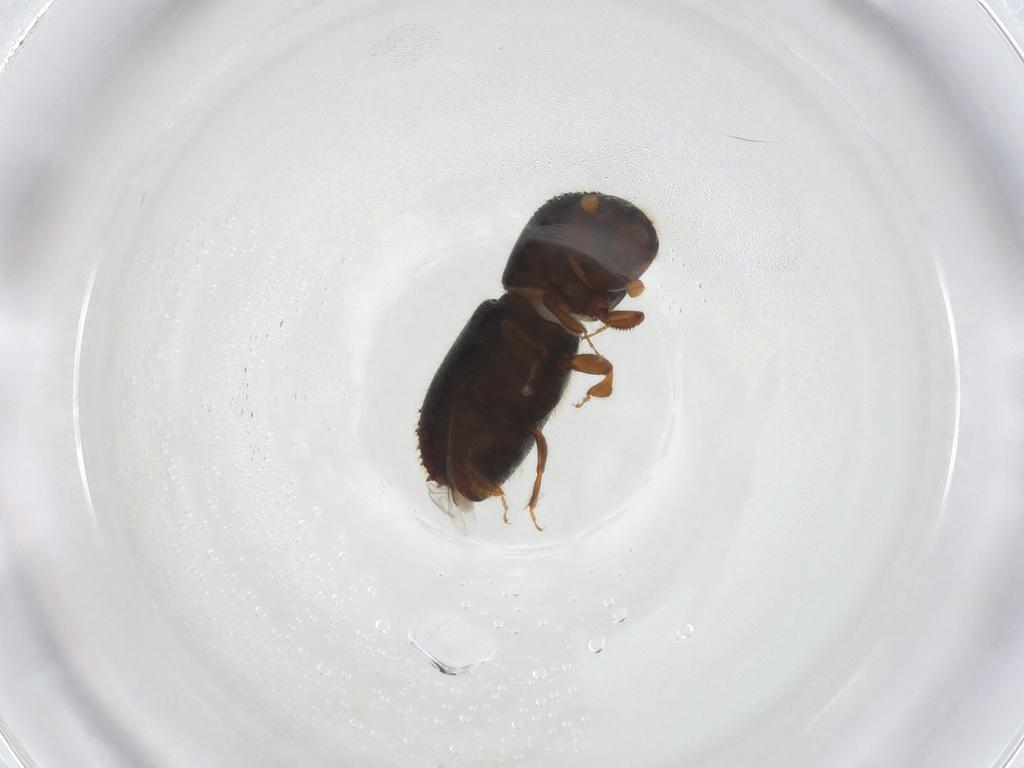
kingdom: Animalia
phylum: Arthropoda
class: Insecta
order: Coleoptera
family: Curculionidae
